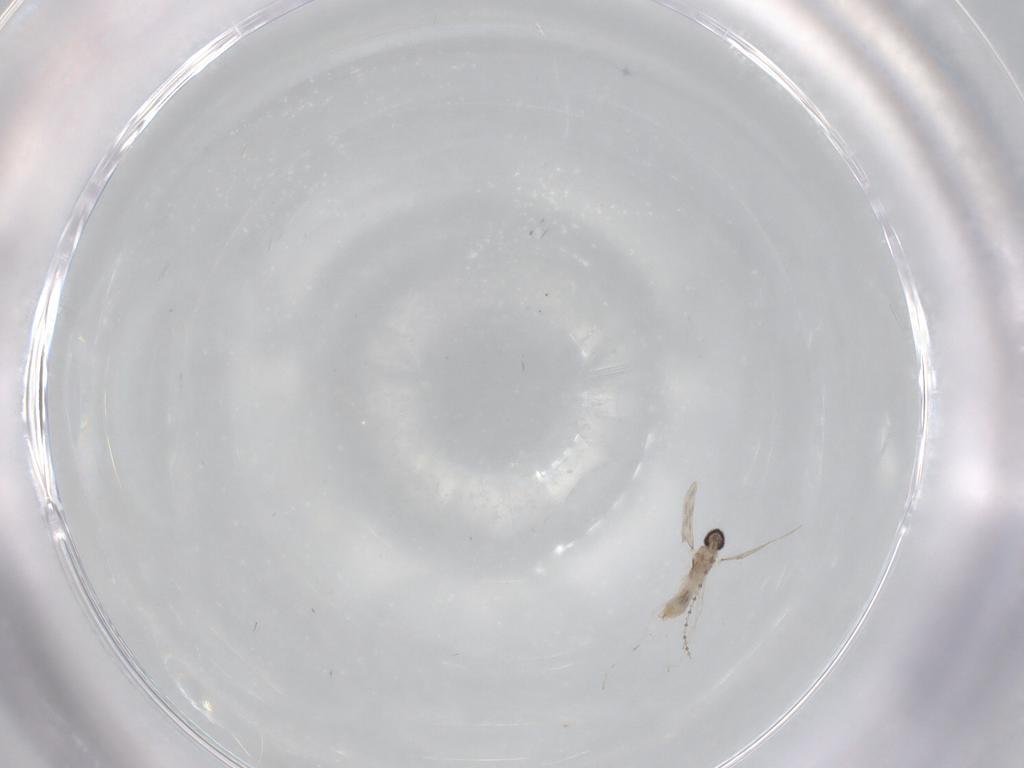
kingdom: Animalia
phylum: Arthropoda
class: Insecta
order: Diptera
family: Cecidomyiidae
